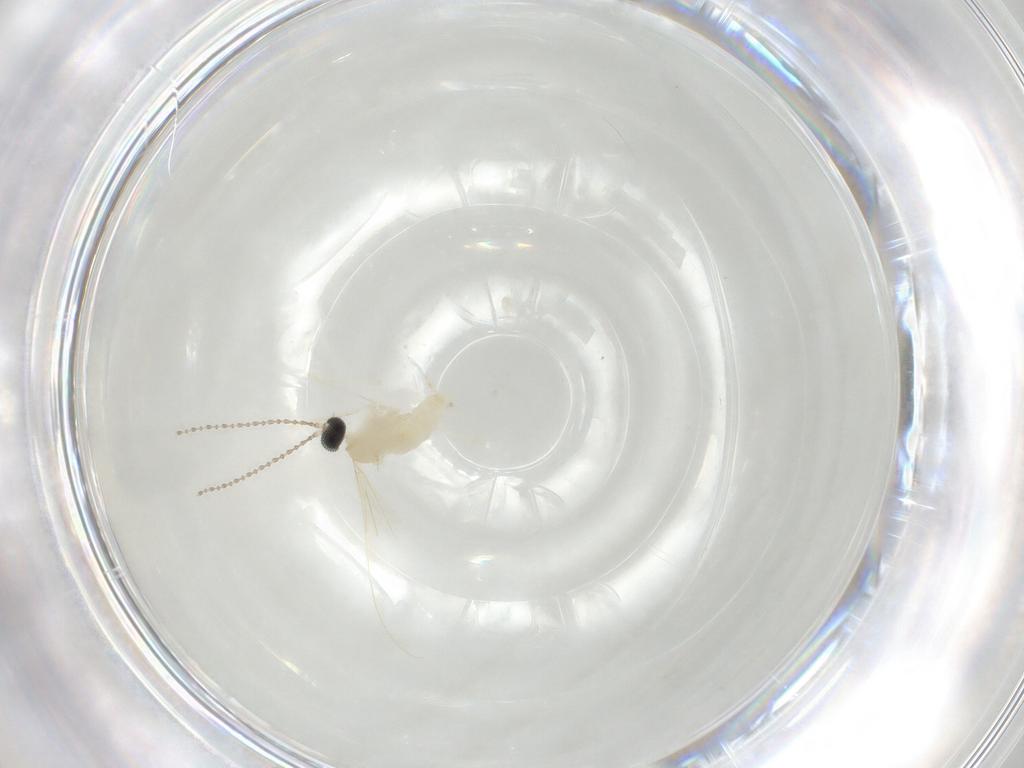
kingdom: Animalia
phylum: Arthropoda
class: Insecta
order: Diptera
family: Cecidomyiidae
